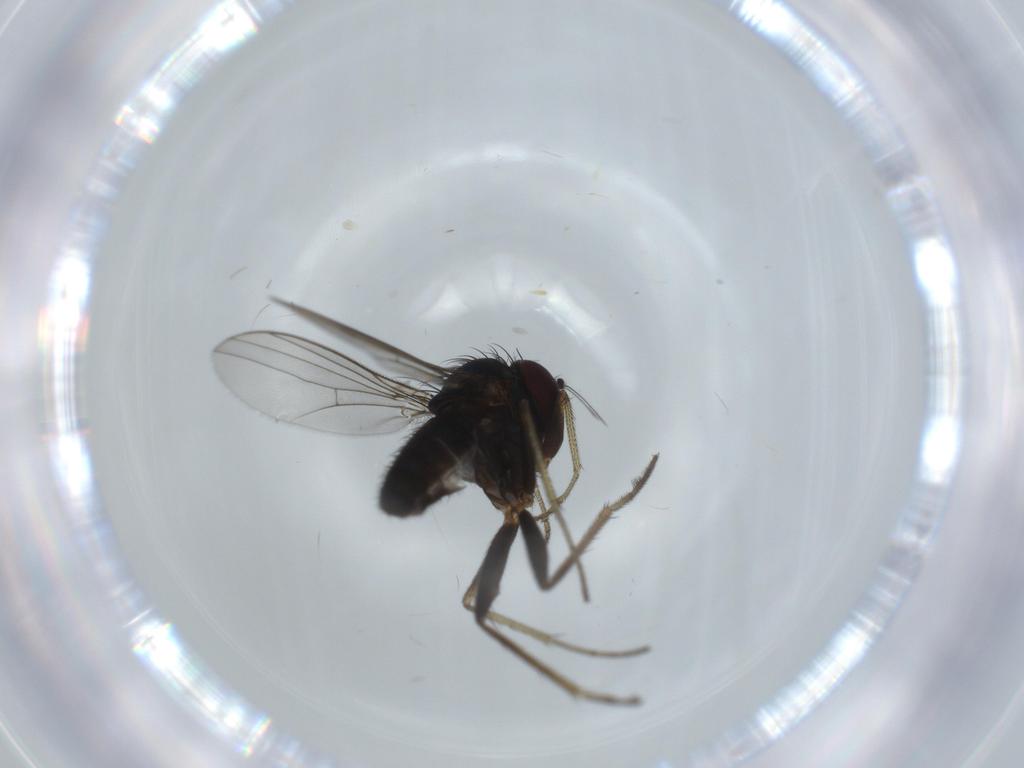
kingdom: Animalia
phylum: Arthropoda
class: Insecta
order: Diptera
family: Dolichopodidae
